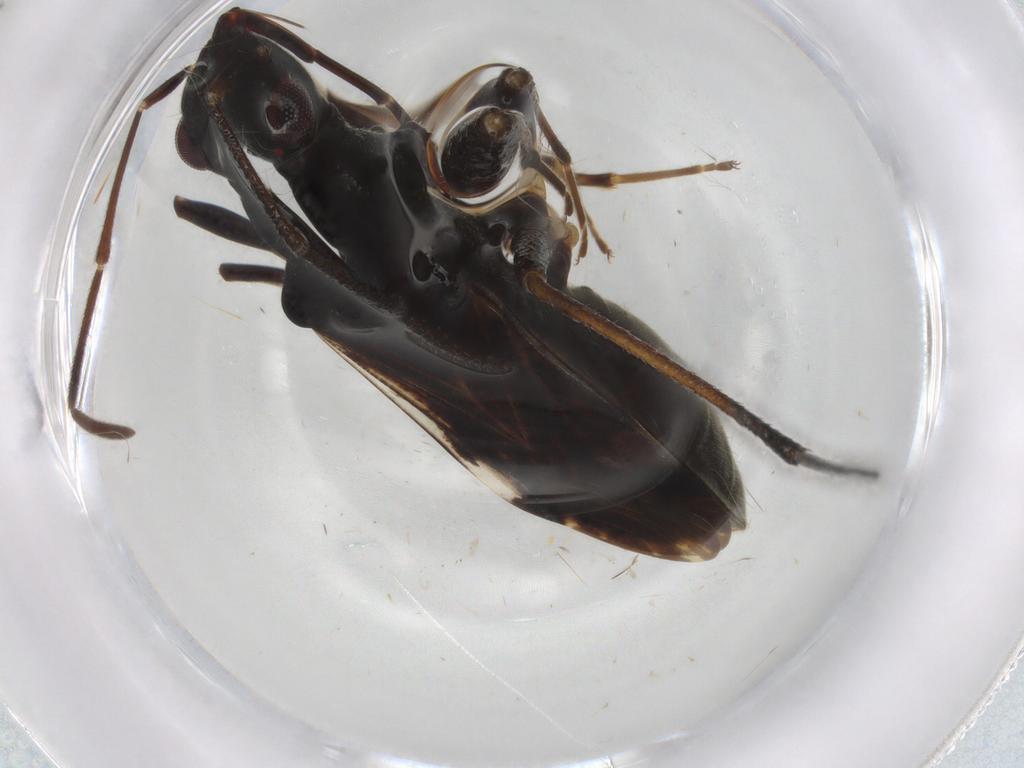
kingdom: Animalia
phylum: Arthropoda
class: Insecta
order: Hemiptera
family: Rhyparochromidae
